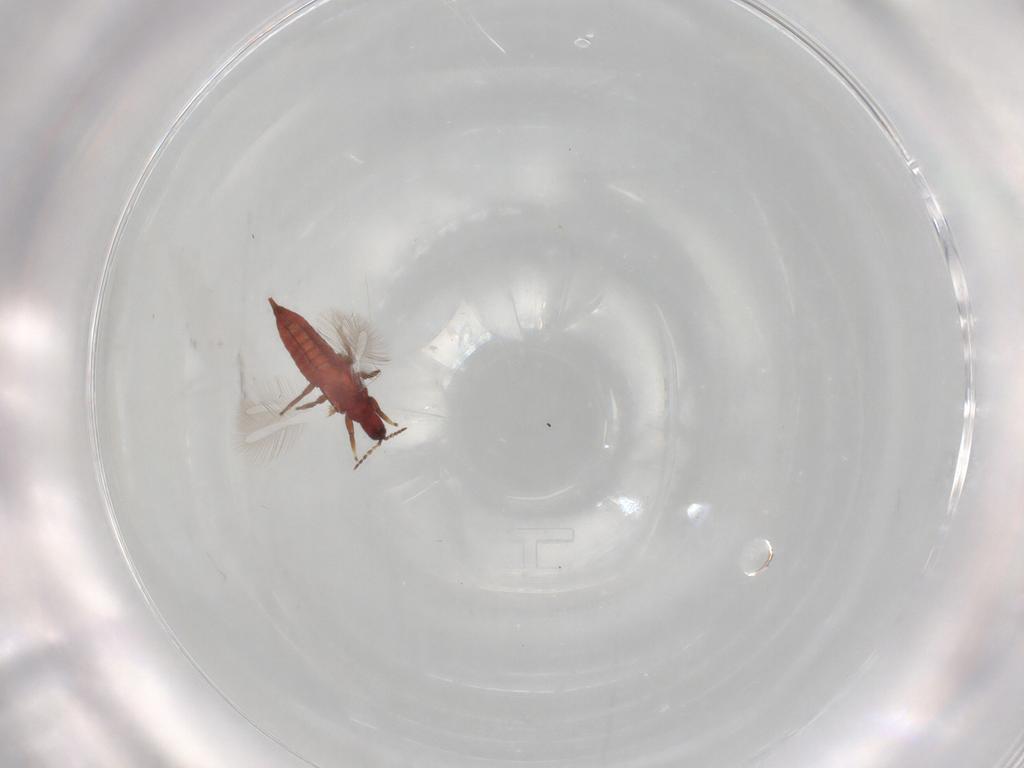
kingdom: Animalia
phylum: Arthropoda
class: Insecta
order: Thysanoptera
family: Phlaeothripidae
